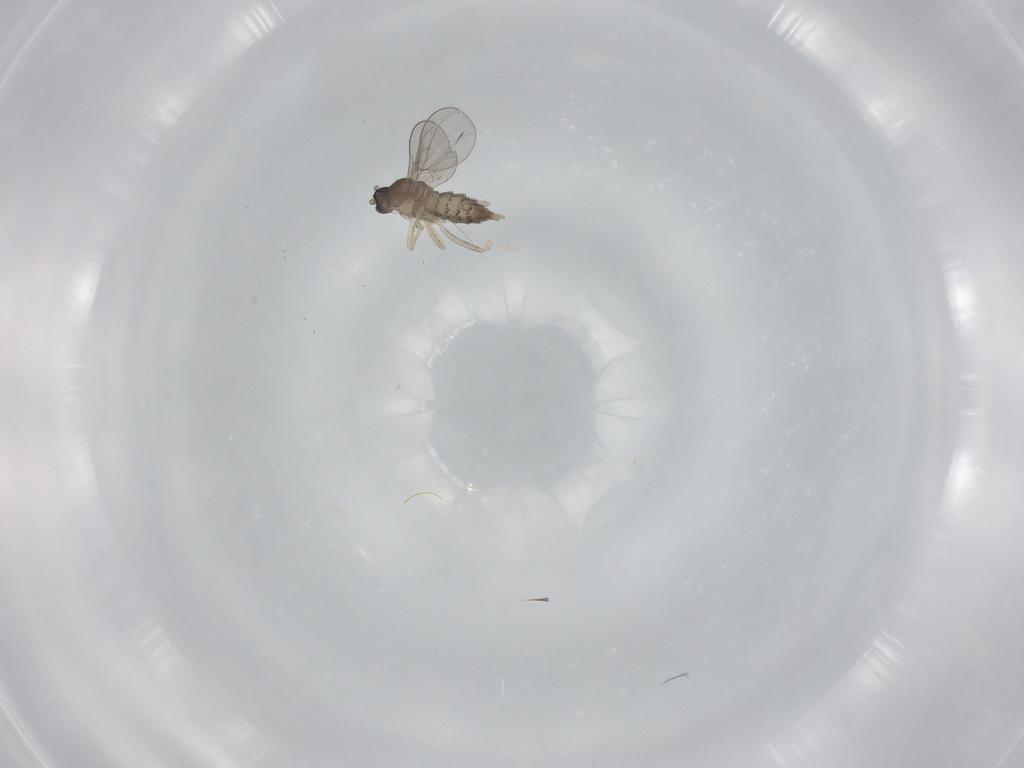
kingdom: Animalia
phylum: Arthropoda
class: Insecta
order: Diptera
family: Cecidomyiidae
